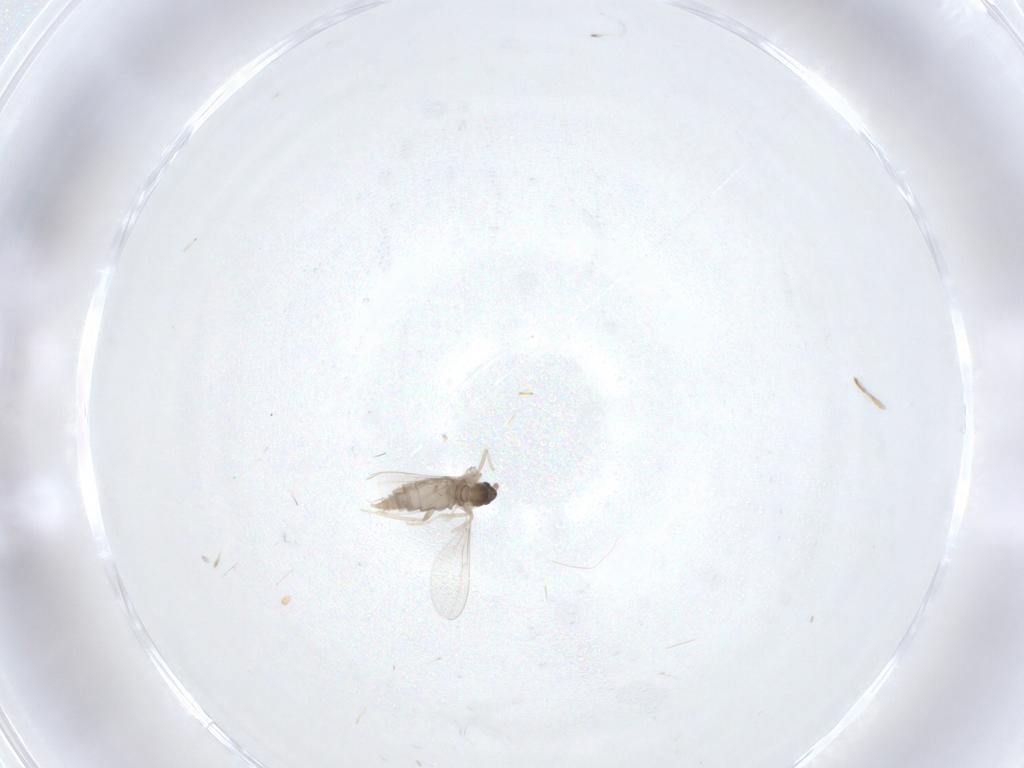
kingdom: Animalia
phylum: Arthropoda
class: Insecta
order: Diptera
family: Cecidomyiidae
